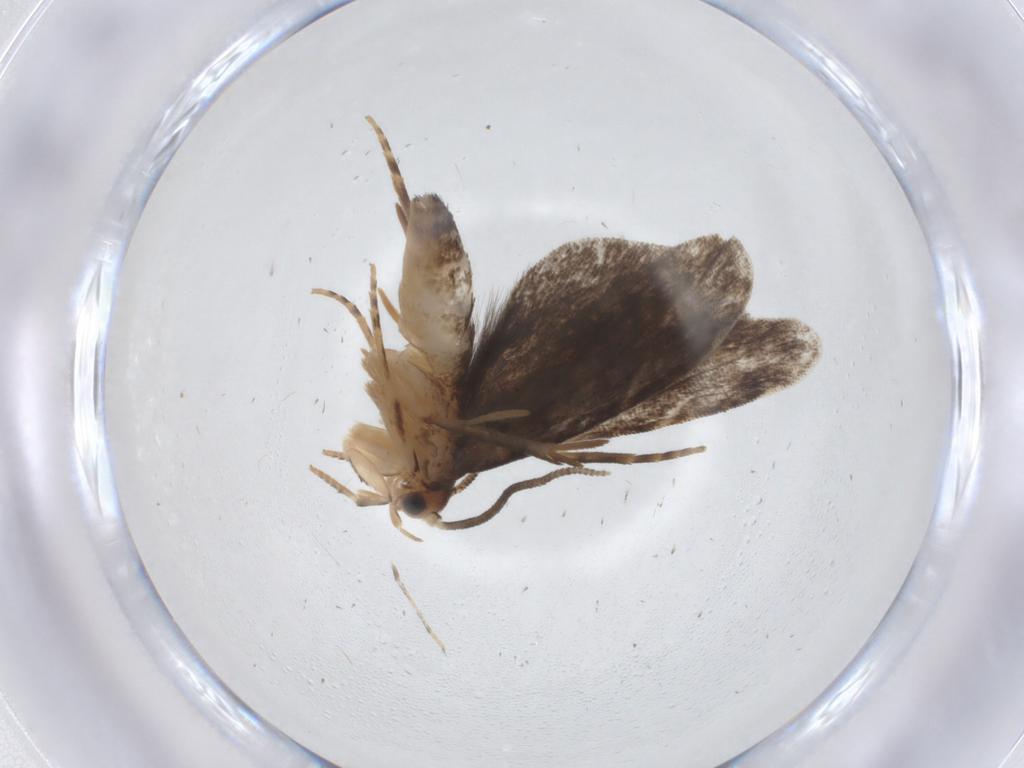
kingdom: Animalia
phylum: Arthropoda
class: Insecta
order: Lepidoptera
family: Dryadaulidae
